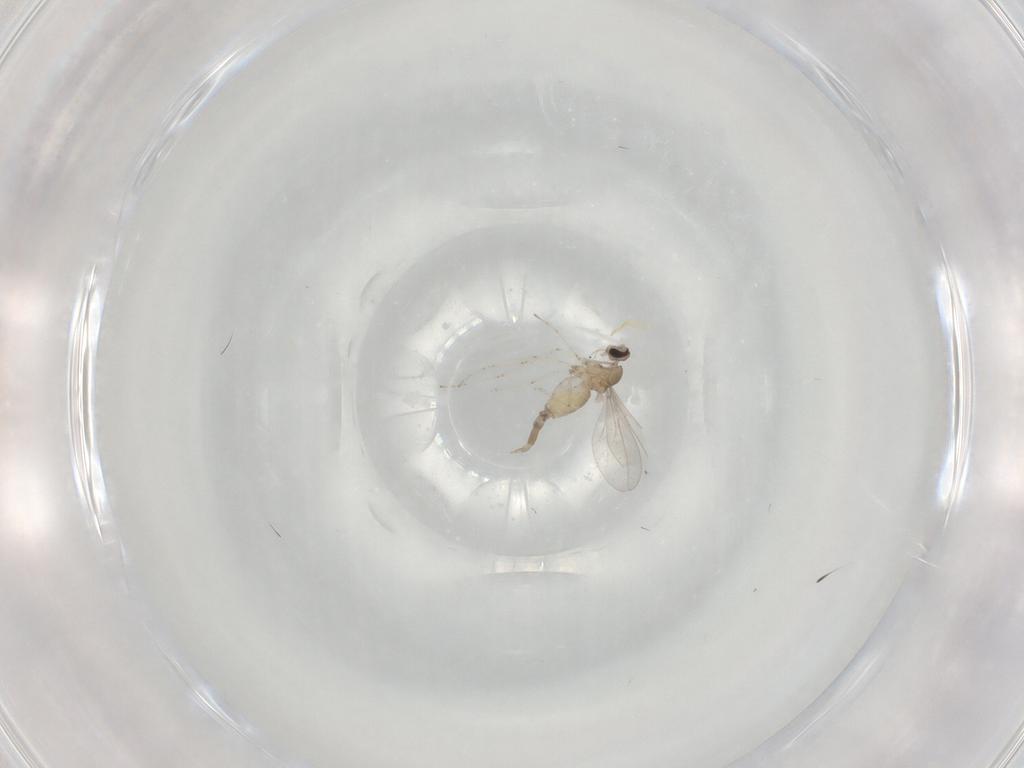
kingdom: Animalia
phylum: Arthropoda
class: Insecta
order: Diptera
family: Cecidomyiidae
